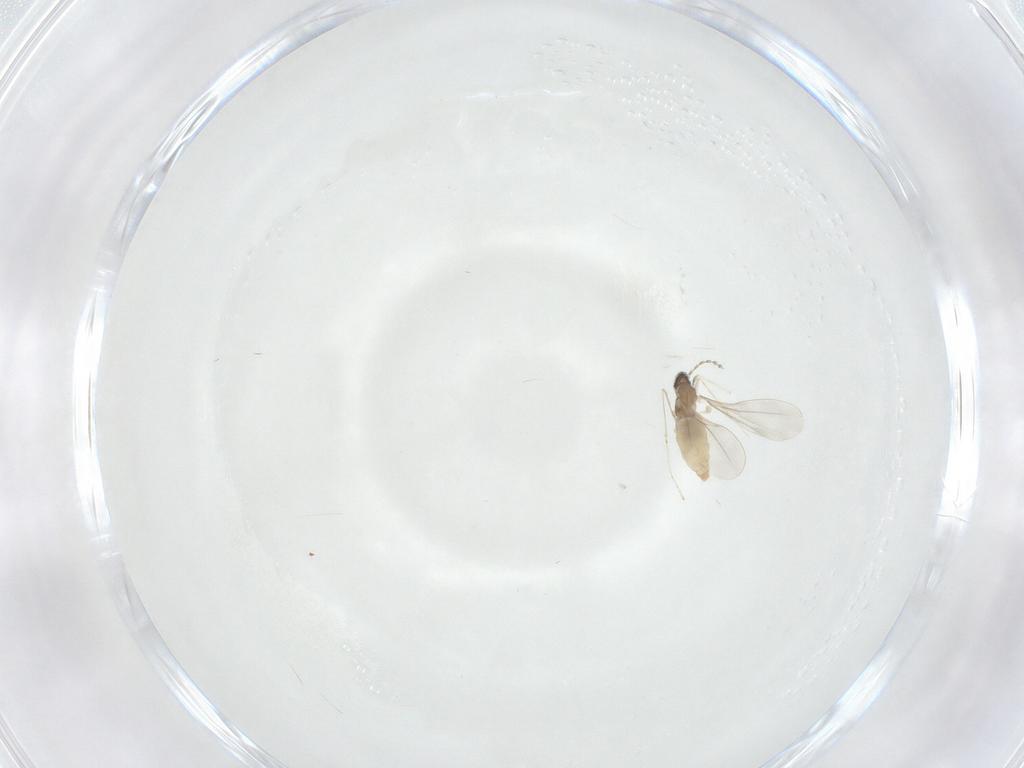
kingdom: Animalia
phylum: Arthropoda
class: Insecta
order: Diptera
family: Cecidomyiidae
